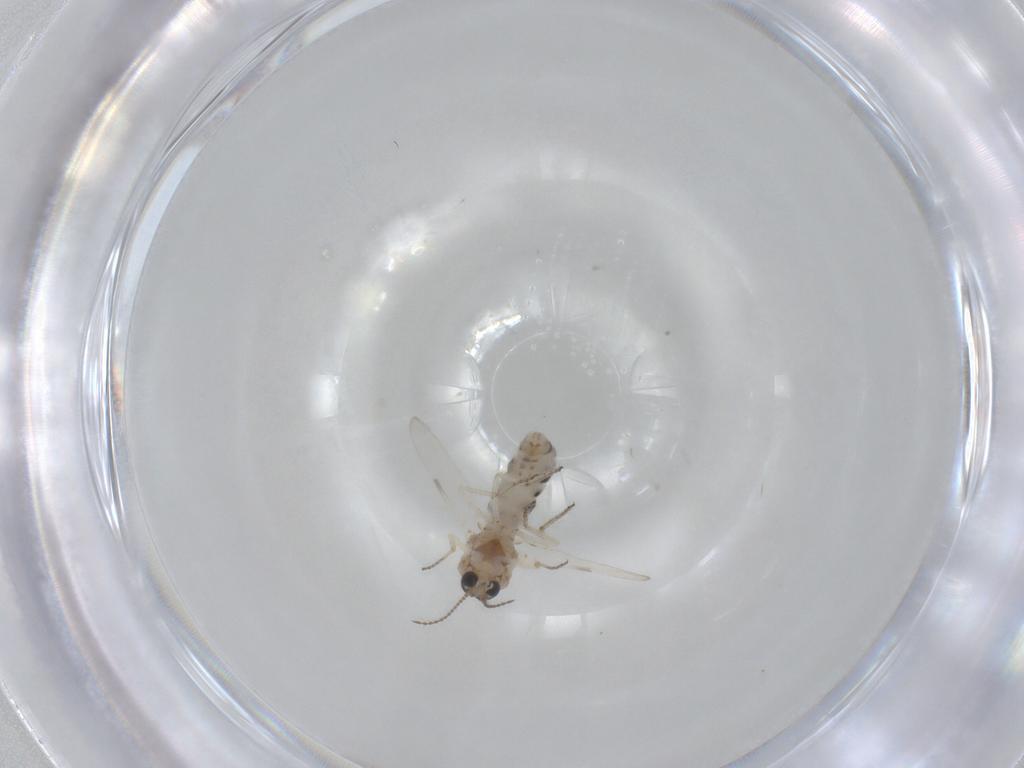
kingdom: Animalia
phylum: Arthropoda
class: Insecta
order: Diptera
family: Ceratopogonidae
